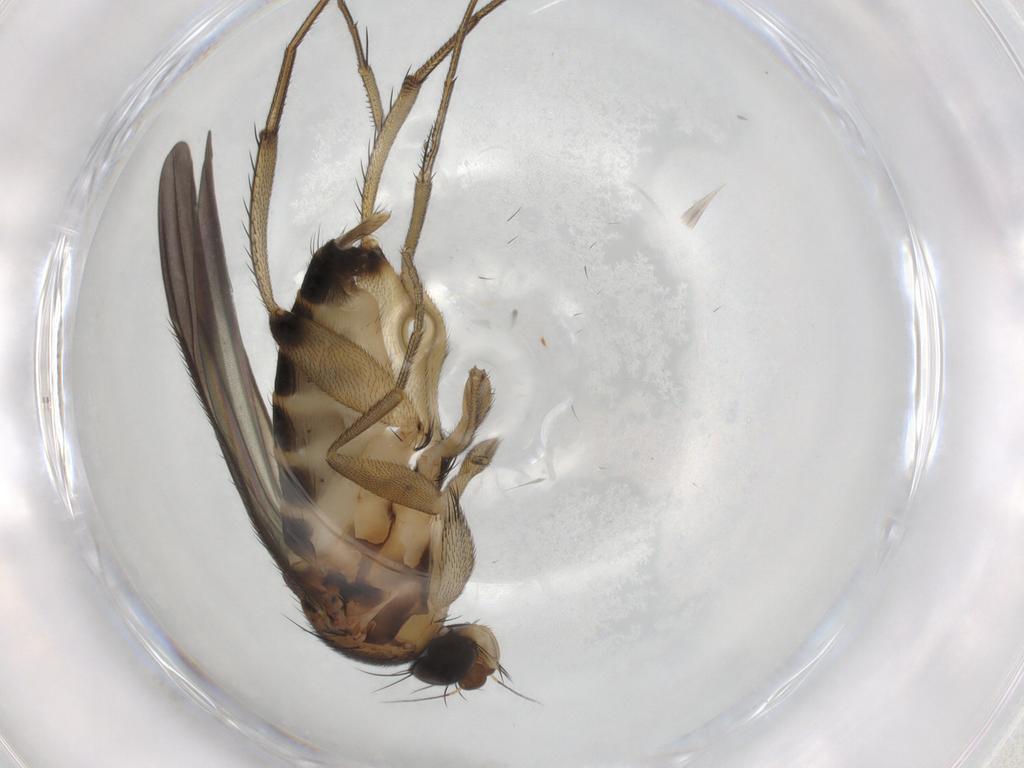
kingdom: Animalia
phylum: Arthropoda
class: Insecta
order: Diptera
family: Phoridae
